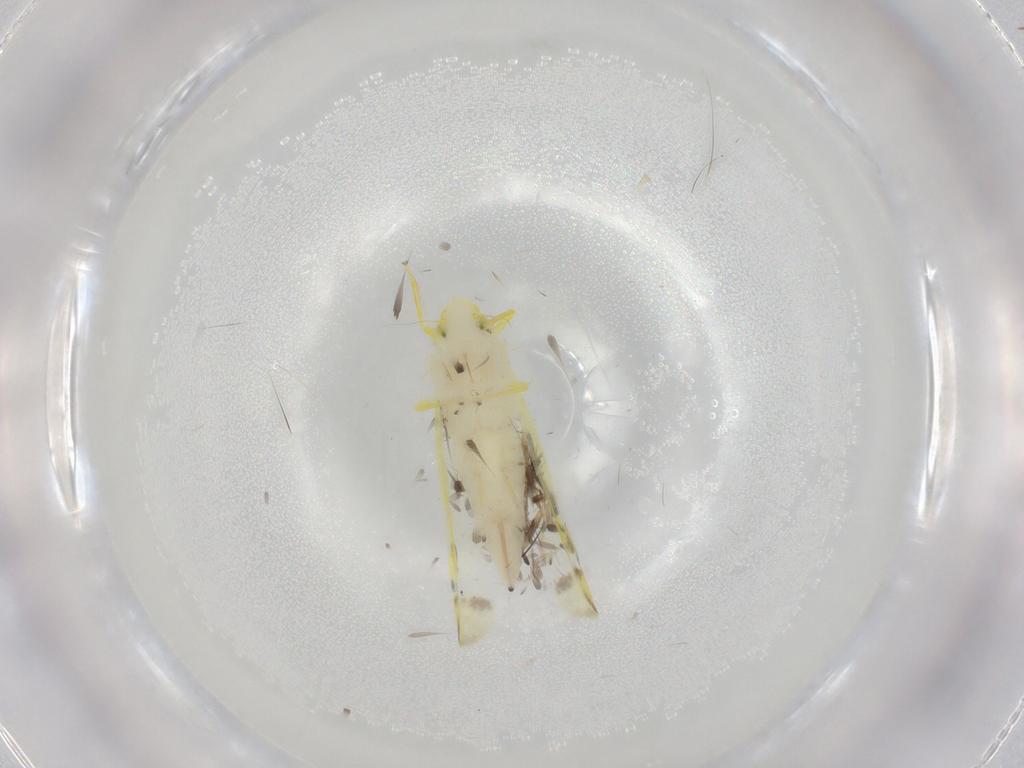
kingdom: Animalia
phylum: Arthropoda
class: Insecta
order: Hemiptera
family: Cicadellidae
